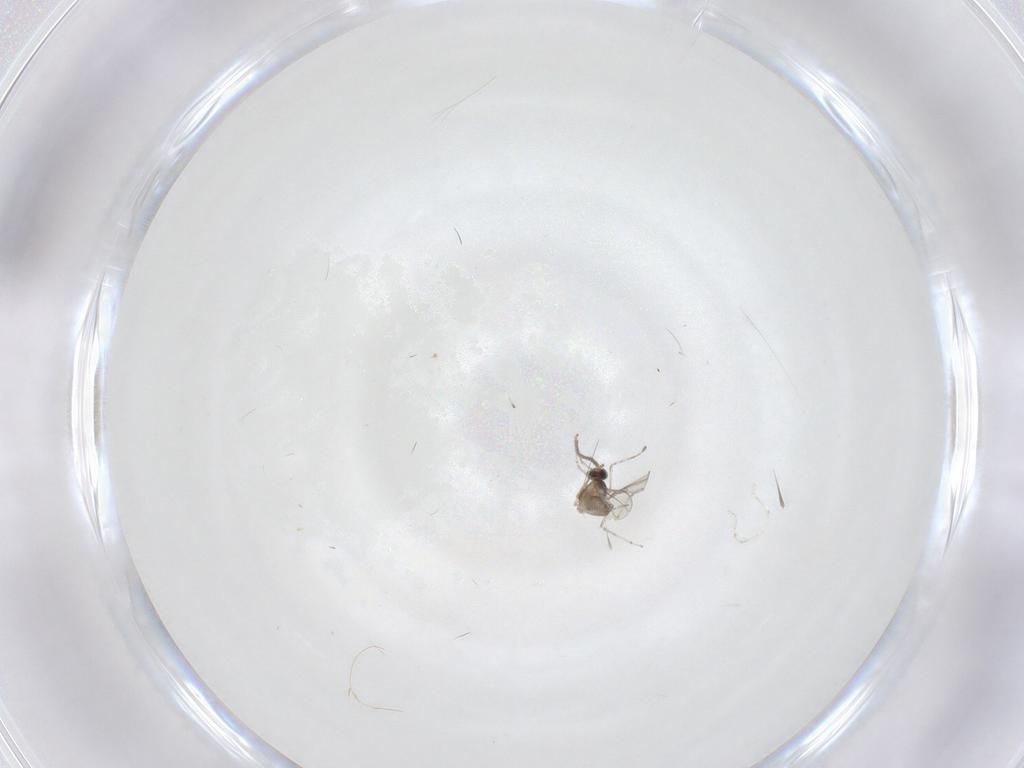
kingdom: Animalia
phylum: Arthropoda
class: Insecta
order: Diptera
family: Cecidomyiidae
